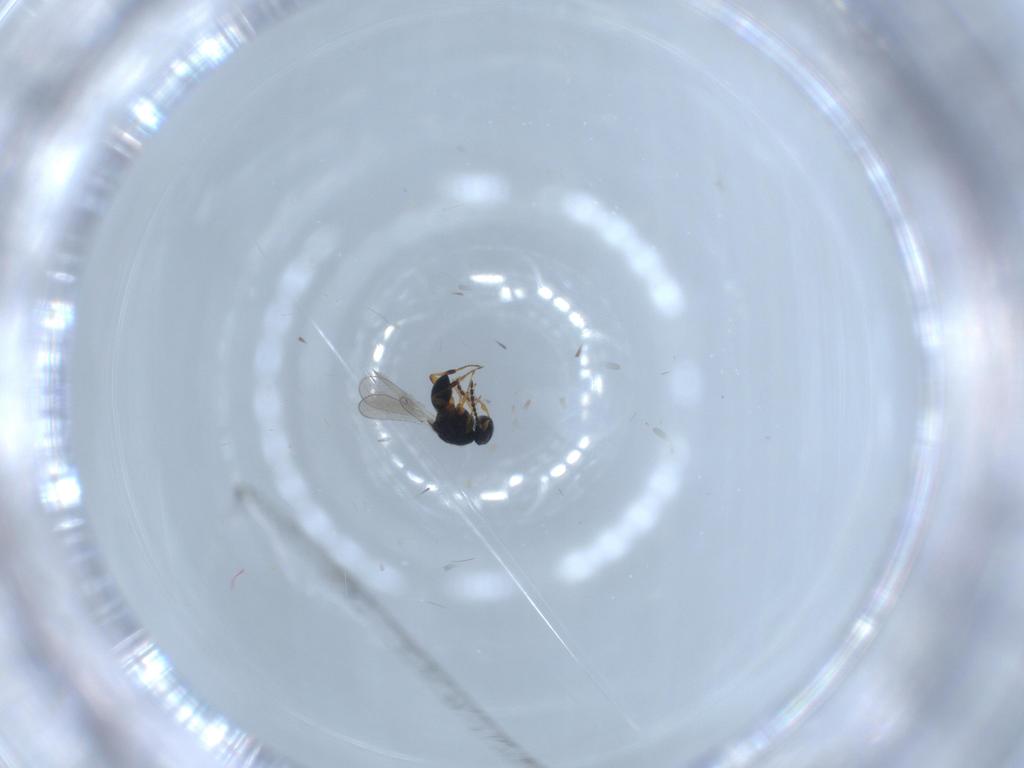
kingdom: Animalia
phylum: Arthropoda
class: Insecta
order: Hymenoptera
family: Platygastridae
